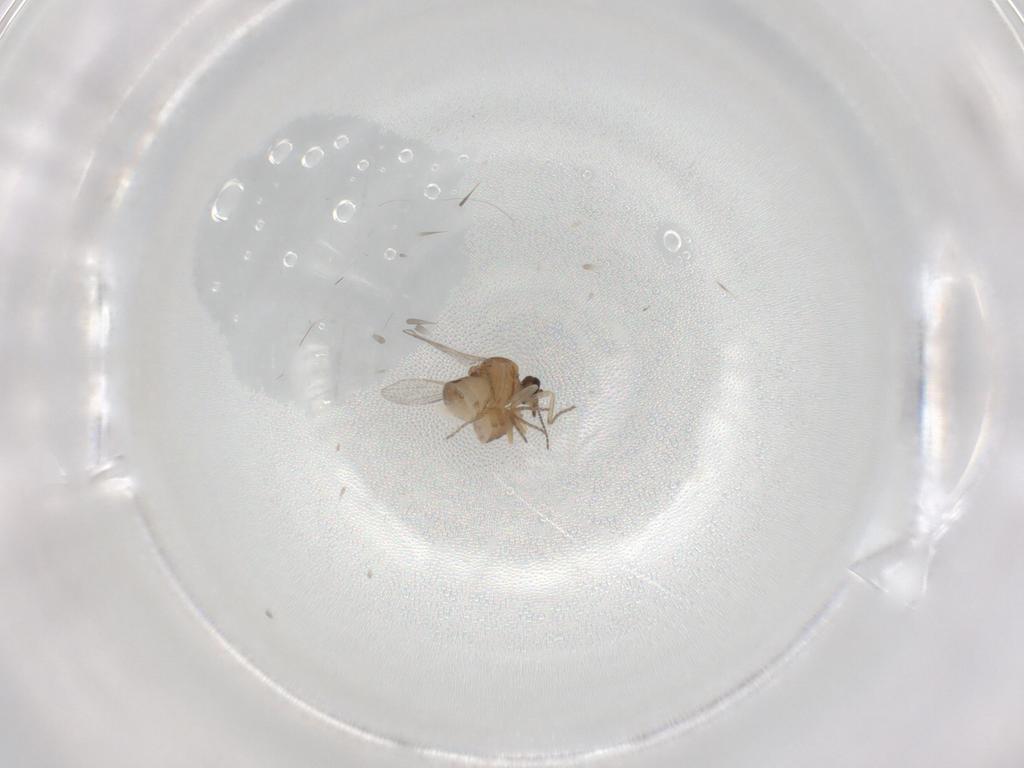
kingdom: Animalia
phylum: Arthropoda
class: Insecta
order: Diptera
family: Ceratopogonidae
